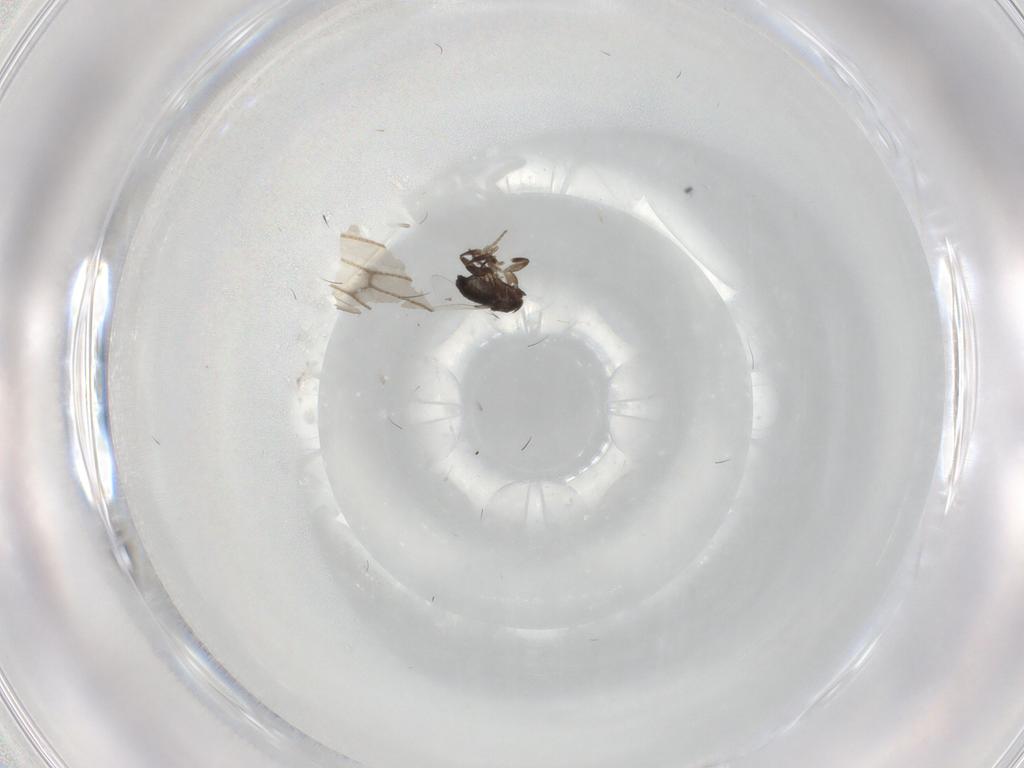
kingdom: Animalia
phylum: Arthropoda
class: Insecta
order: Diptera
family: Phoridae
